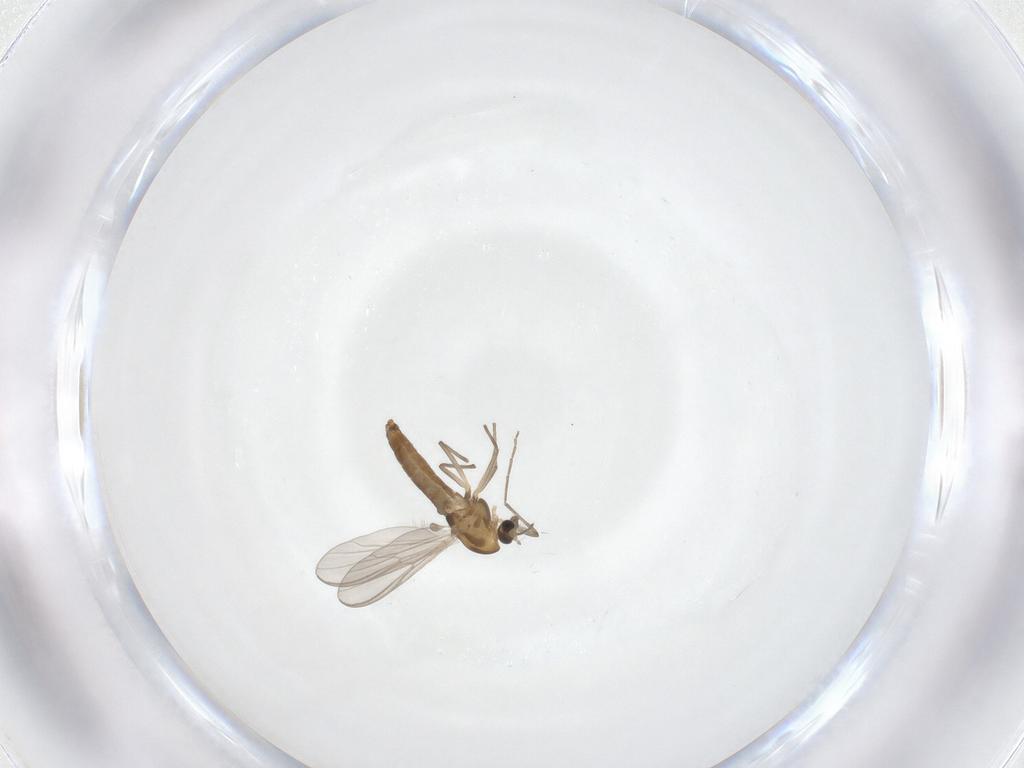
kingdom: Animalia
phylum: Arthropoda
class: Insecta
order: Diptera
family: Chironomidae
